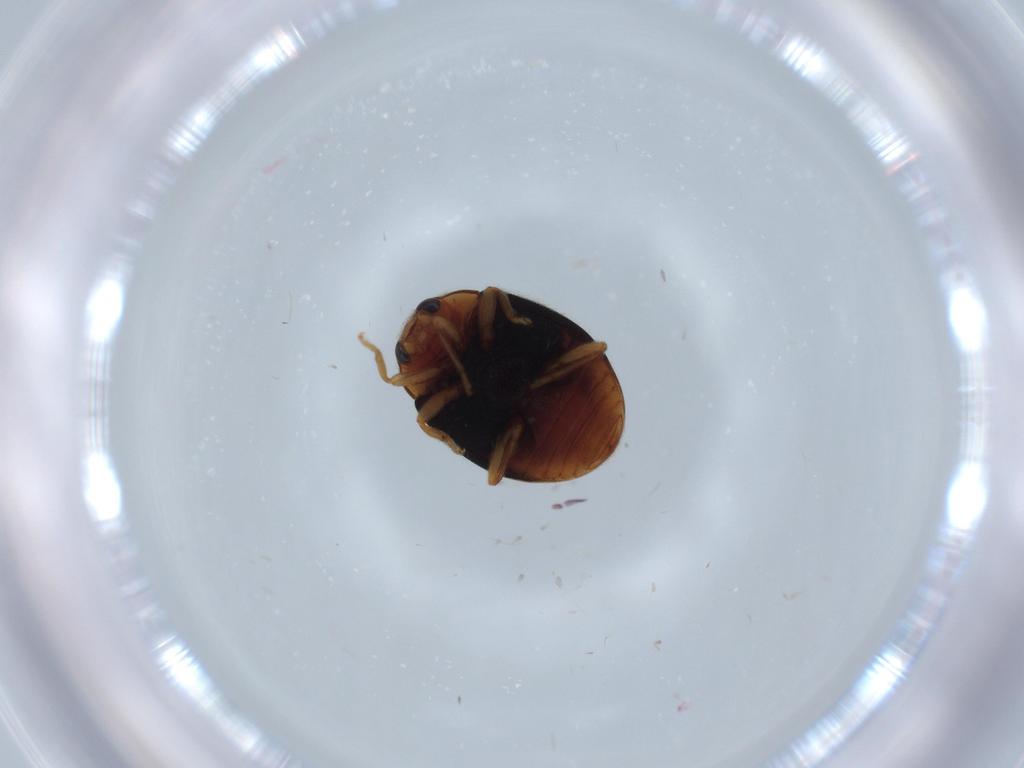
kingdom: Animalia
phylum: Arthropoda
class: Insecta
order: Coleoptera
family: Coccinellidae
